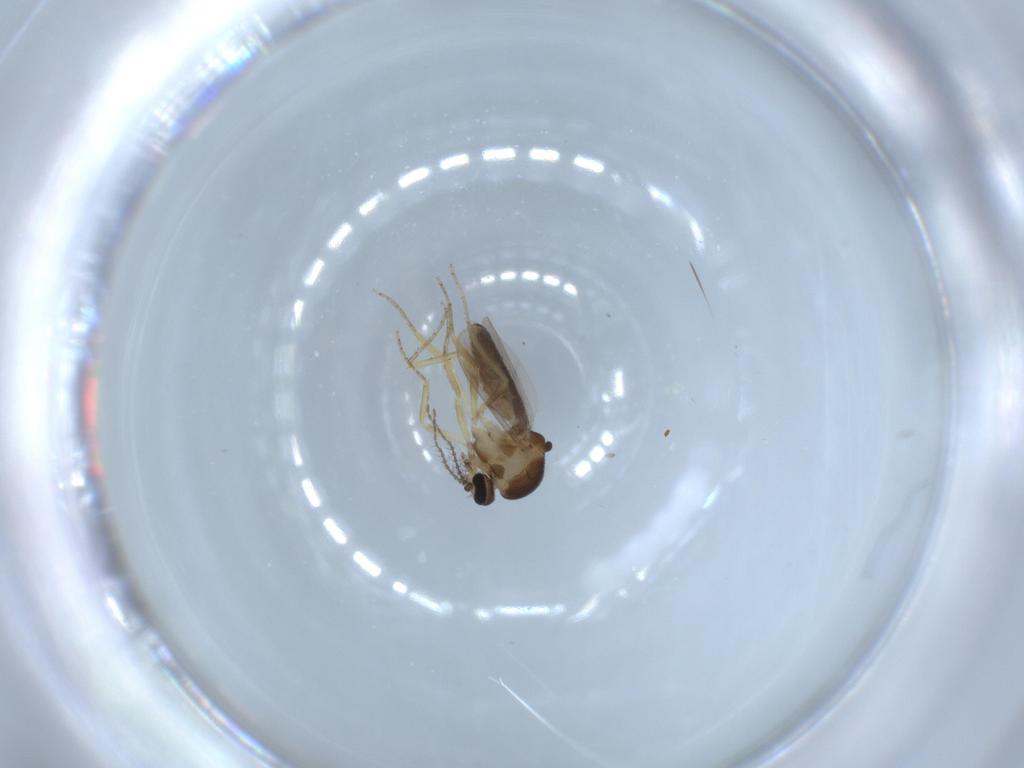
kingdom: Animalia
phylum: Arthropoda
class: Insecta
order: Diptera
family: Ceratopogonidae
